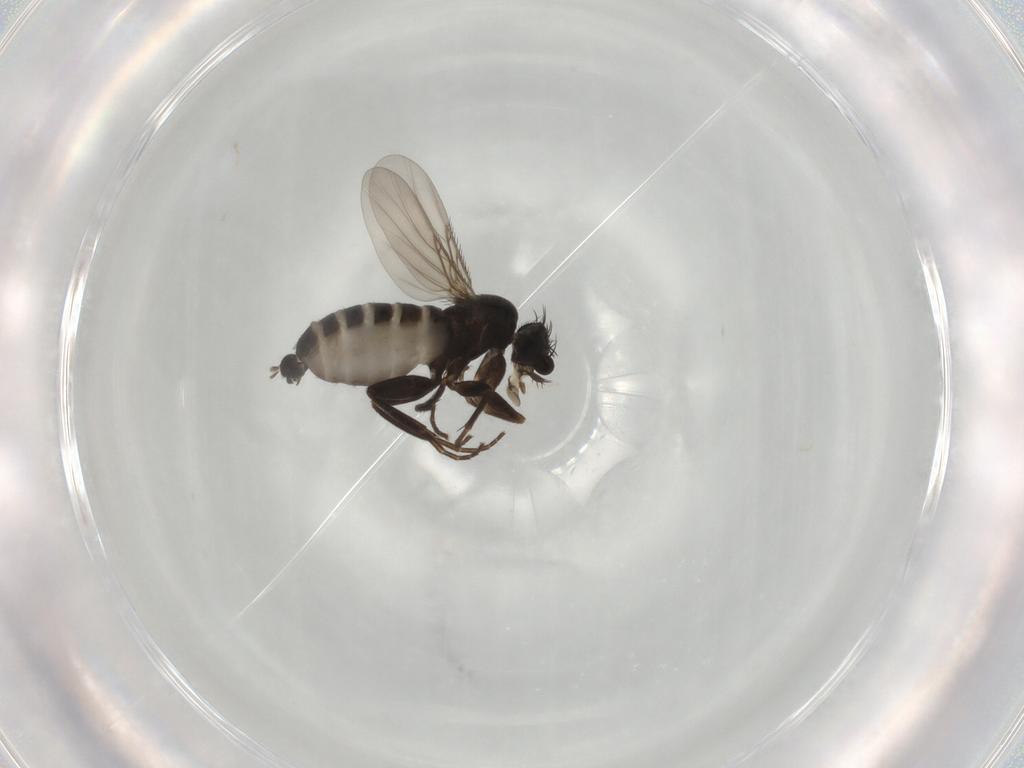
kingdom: Animalia
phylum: Arthropoda
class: Insecta
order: Diptera
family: Phoridae
